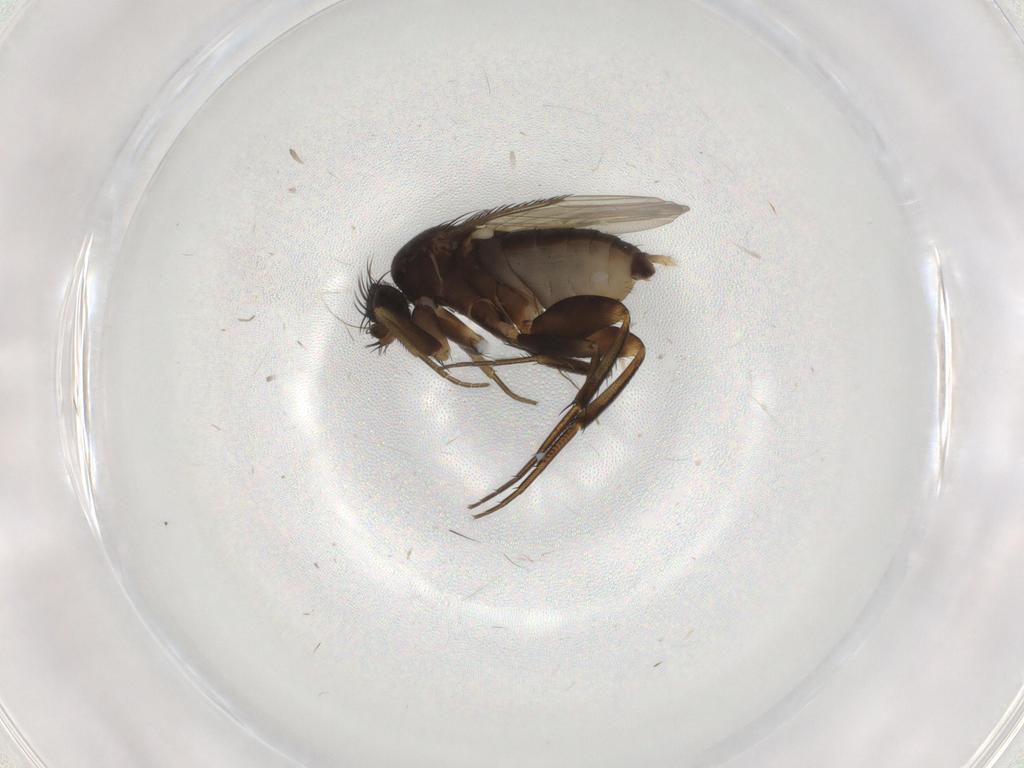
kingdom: Animalia
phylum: Arthropoda
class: Insecta
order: Diptera
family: Phoridae
